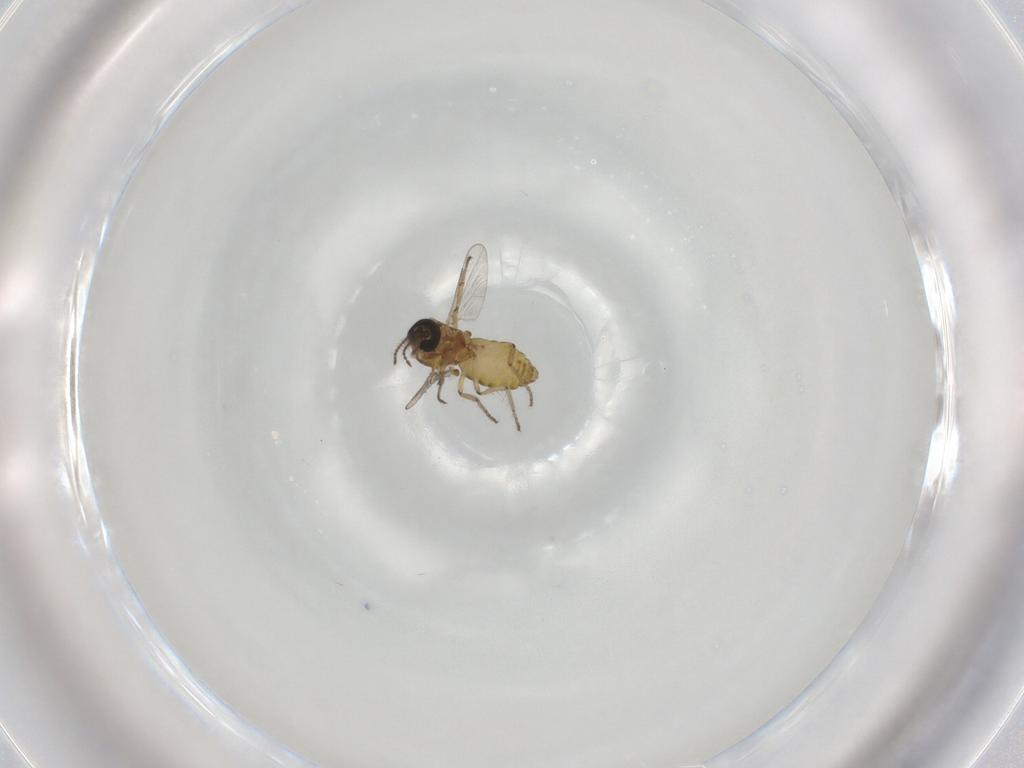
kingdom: Animalia
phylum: Arthropoda
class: Insecta
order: Diptera
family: Ceratopogonidae
